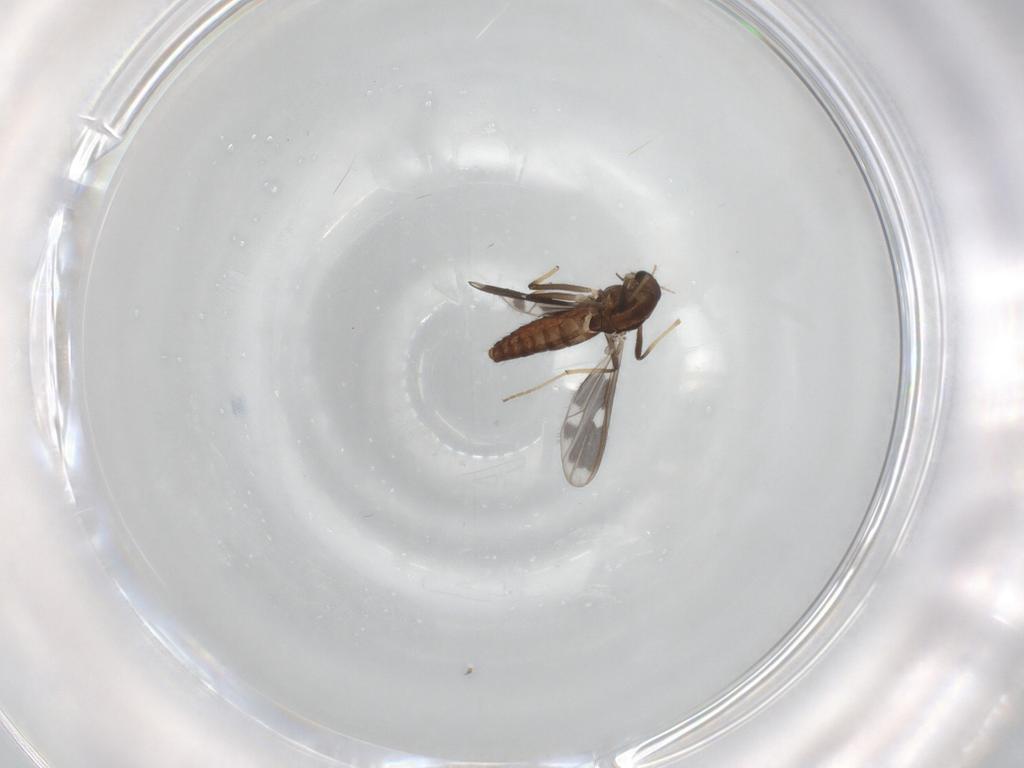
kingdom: Animalia
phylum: Arthropoda
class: Insecta
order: Diptera
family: Chironomidae
